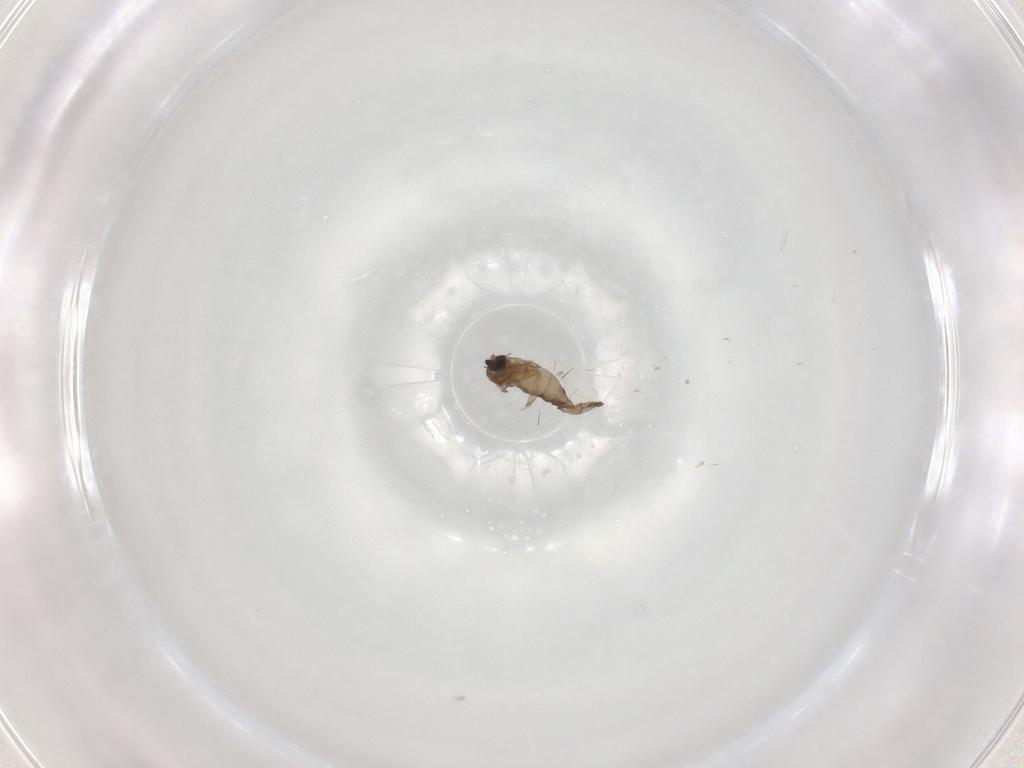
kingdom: Animalia
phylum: Arthropoda
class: Insecta
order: Diptera
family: Cecidomyiidae
